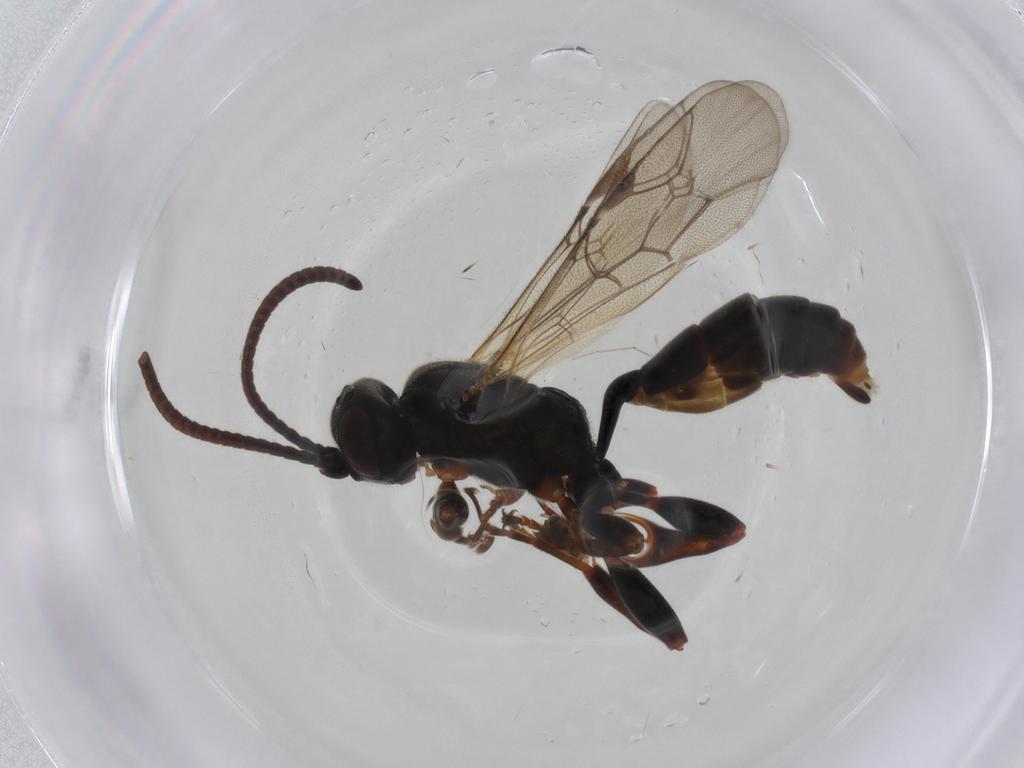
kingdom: Animalia
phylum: Arthropoda
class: Insecta
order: Hymenoptera
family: Ichneumonidae
